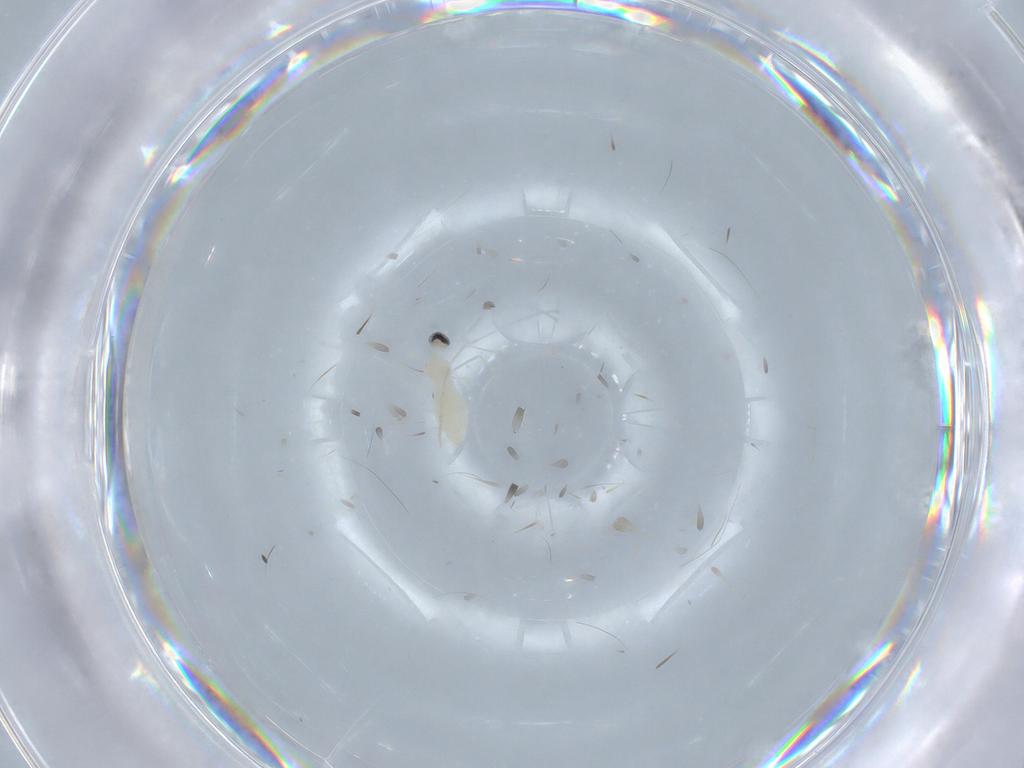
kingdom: Animalia
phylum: Arthropoda
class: Insecta
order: Diptera
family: Cecidomyiidae
